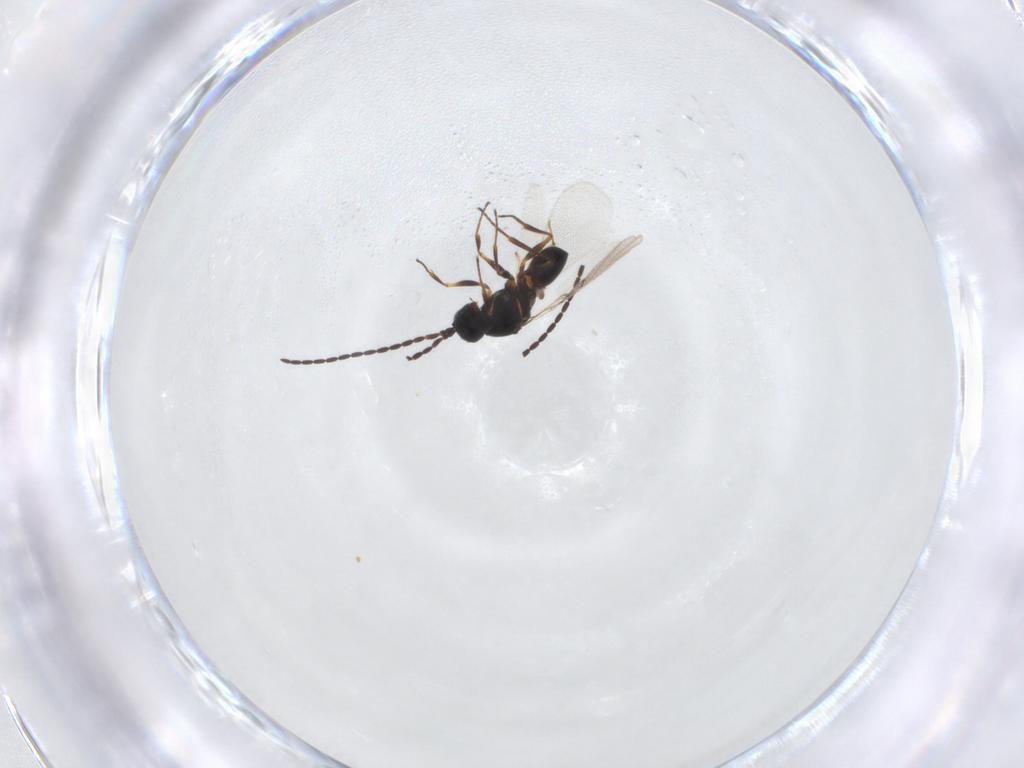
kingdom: Animalia
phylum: Arthropoda
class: Insecta
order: Hymenoptera
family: Figitidae
